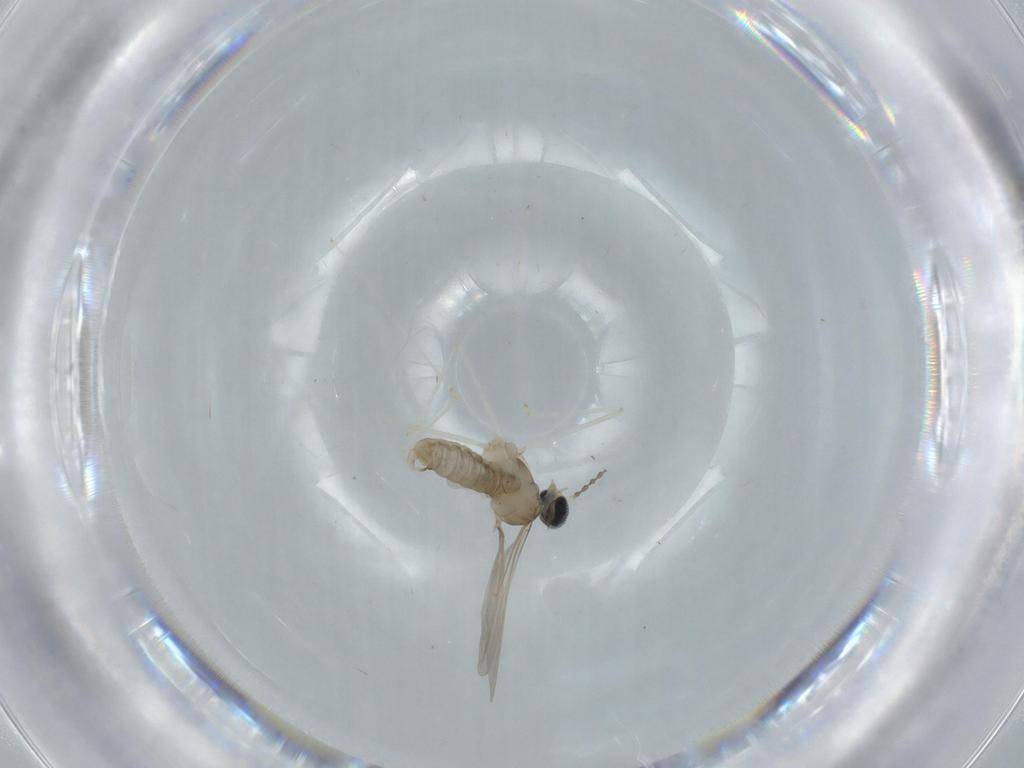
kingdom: Animalia
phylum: Arthropoda
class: Insecta
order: Diptera
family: Cecidomyiidae
